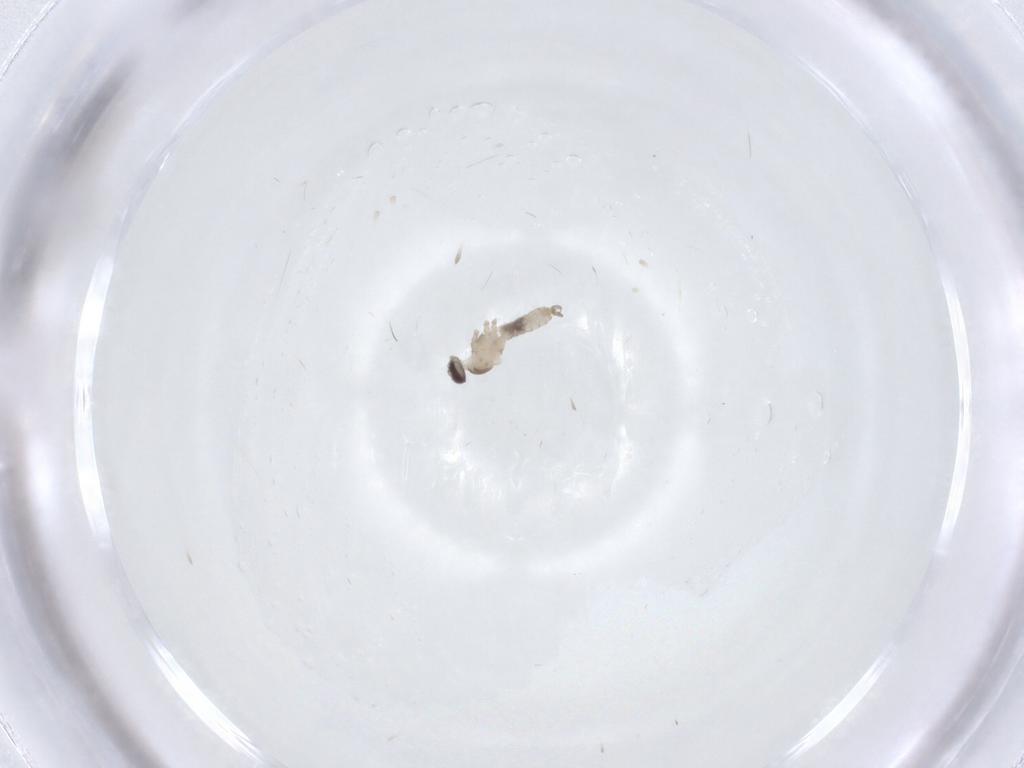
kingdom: Animalia
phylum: Arthropoda
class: Insecta
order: Diptera
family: Cecidomyiidae
